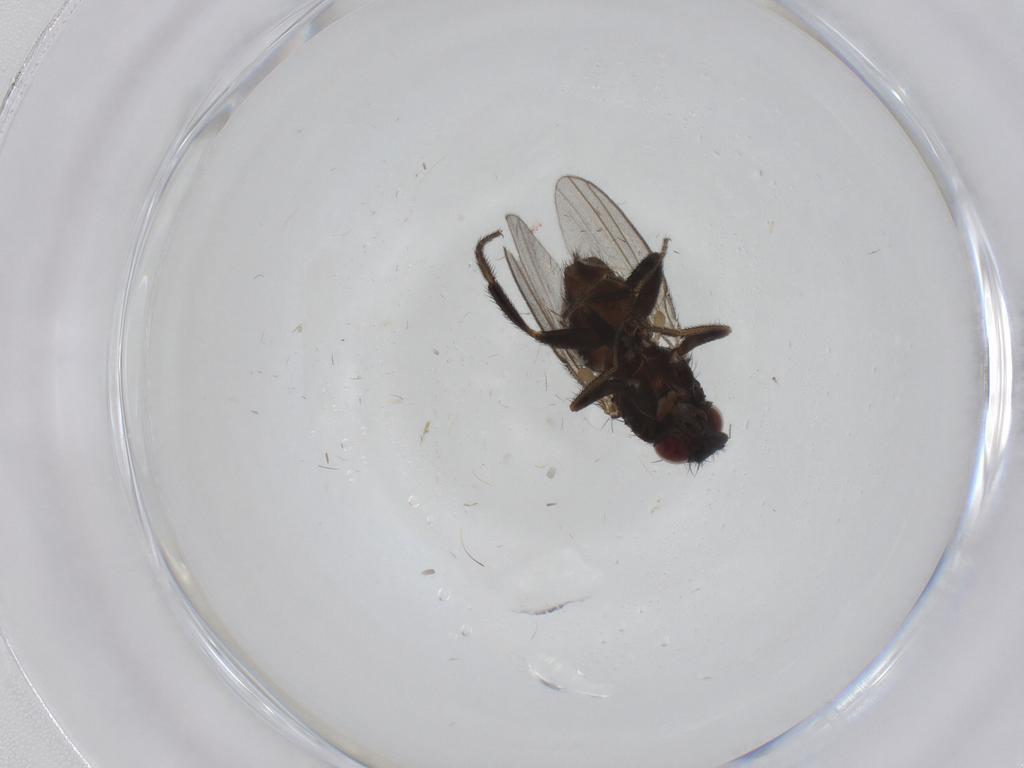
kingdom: Animalia
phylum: Arthropoda
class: Insecta
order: Diptera
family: Milichiidae
